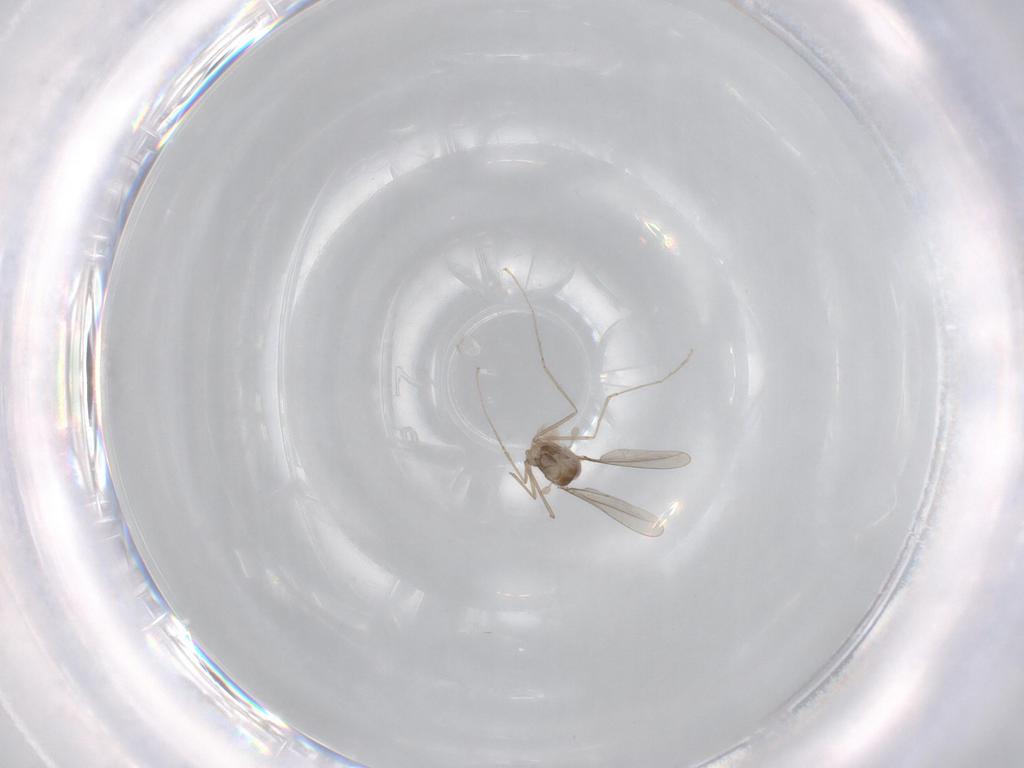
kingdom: Animalia
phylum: Arthropoda
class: Insecta
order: Diptera
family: Cecidomyiidae
